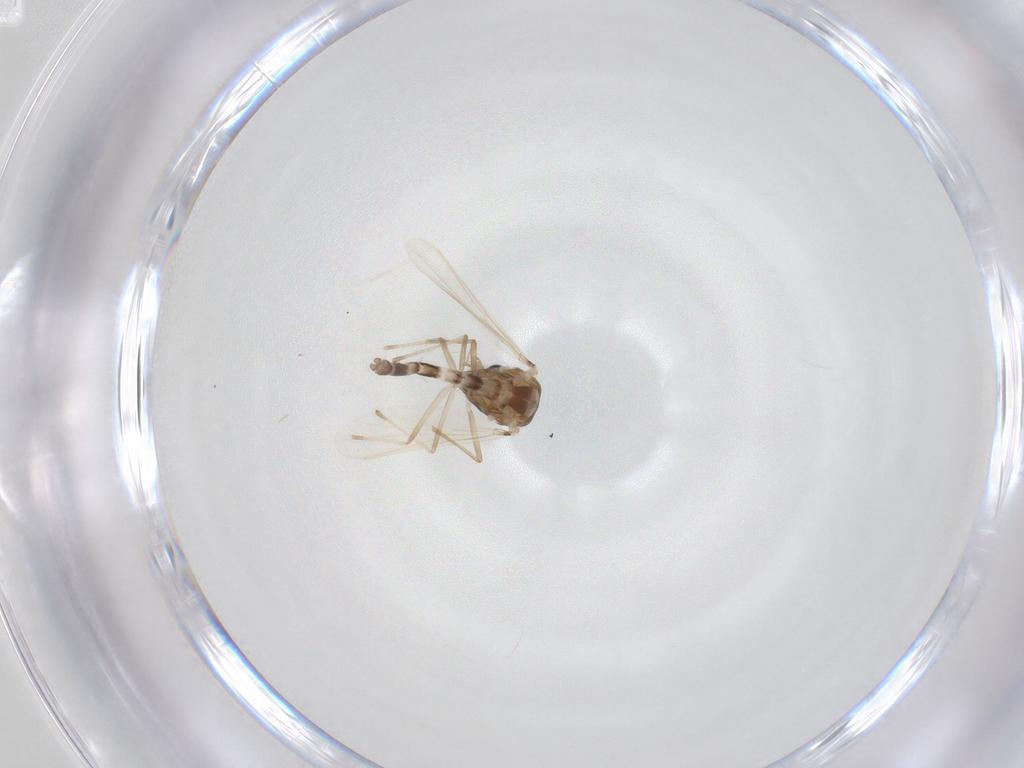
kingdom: Animalia
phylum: Arthropoda
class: Insecta
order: Diptera
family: Chironomidae
